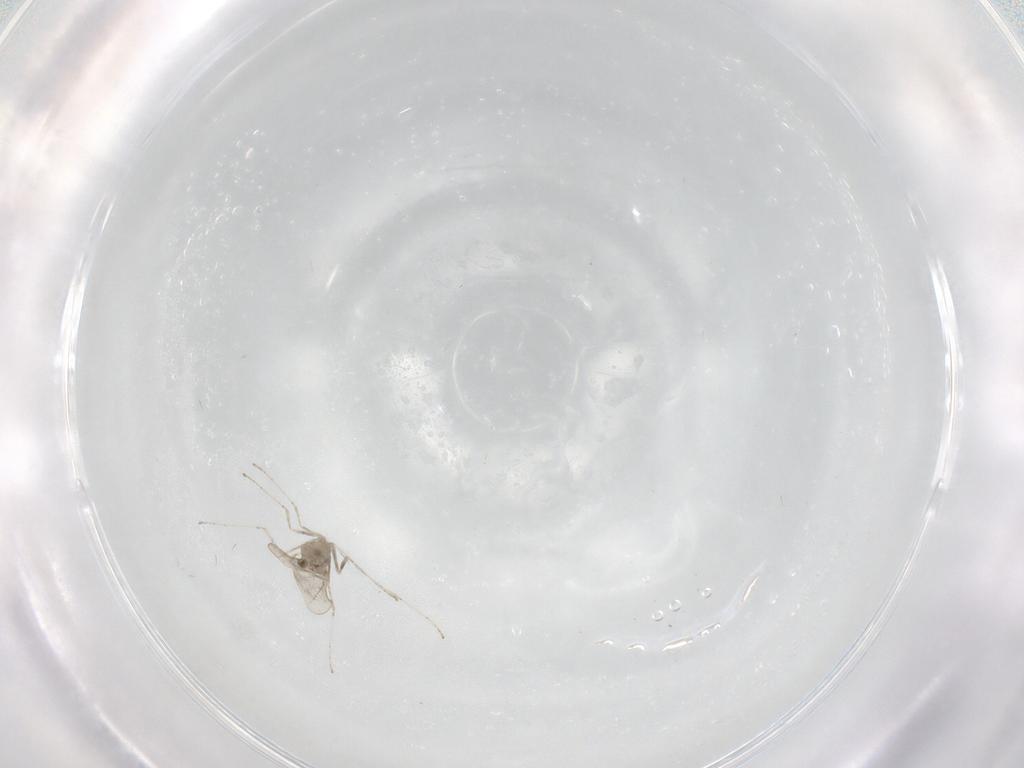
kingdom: Animalia
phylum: Arthropoda
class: Insecta
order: Diptera
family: Cecidomyiidae
